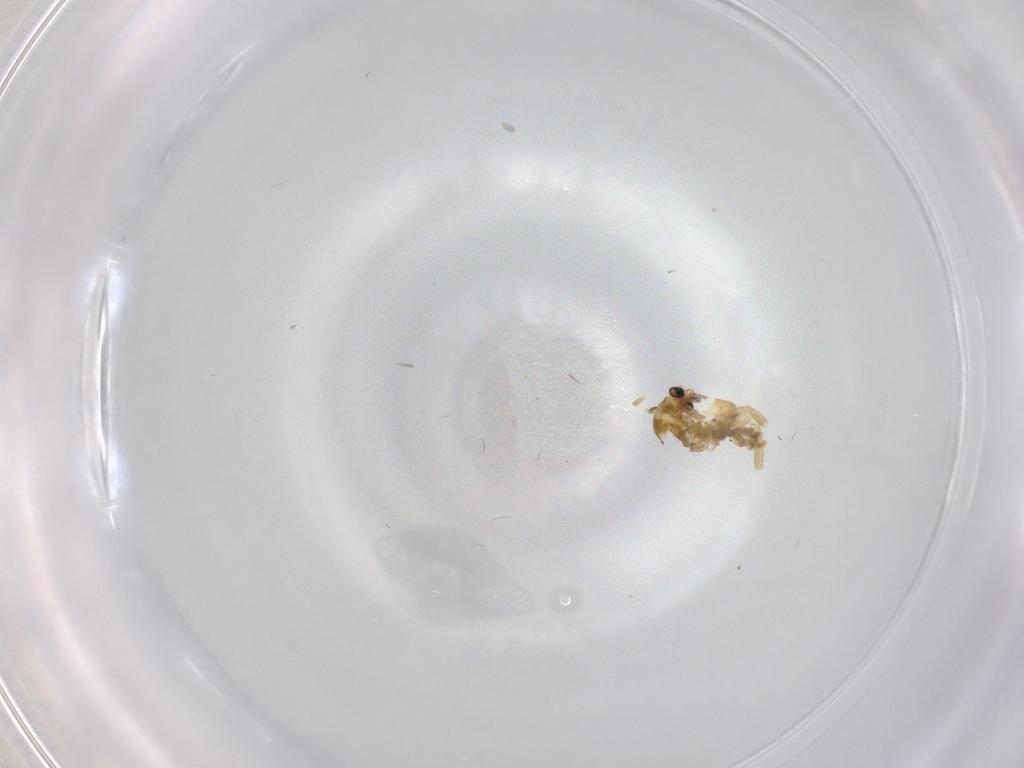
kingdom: Animalia
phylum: Arthropoda
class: Insecta
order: Diptera
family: Chironomidae
